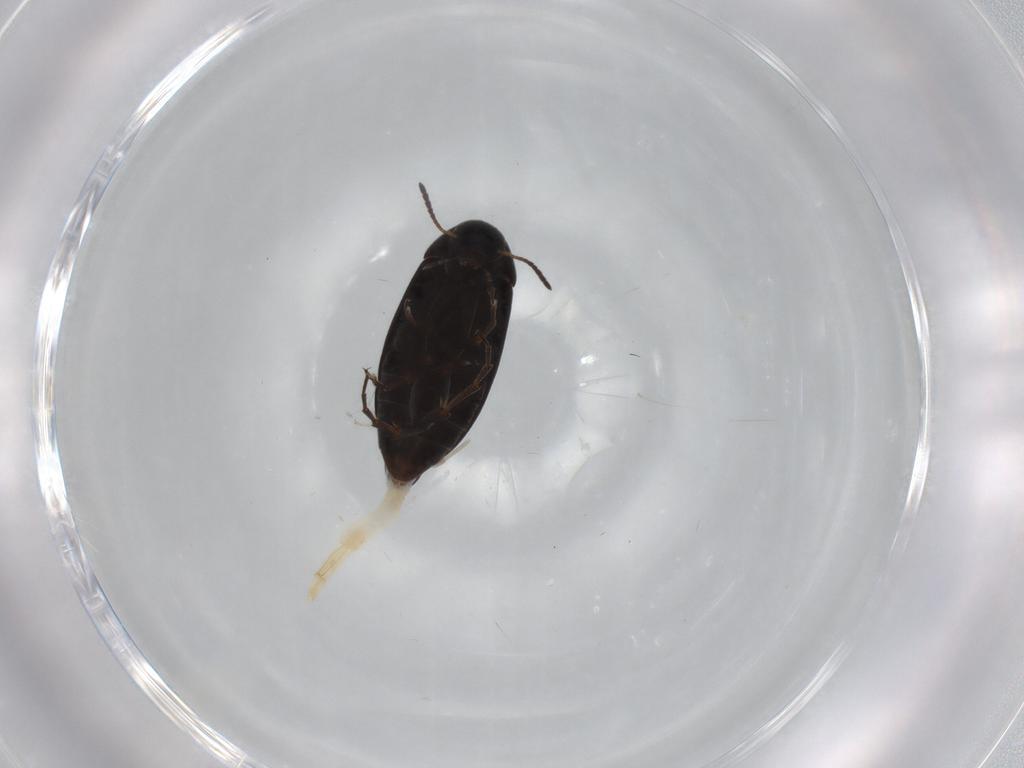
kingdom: Animalia
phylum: Arthropoda
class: Insecta
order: Coleoptera
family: Scraptiidae
